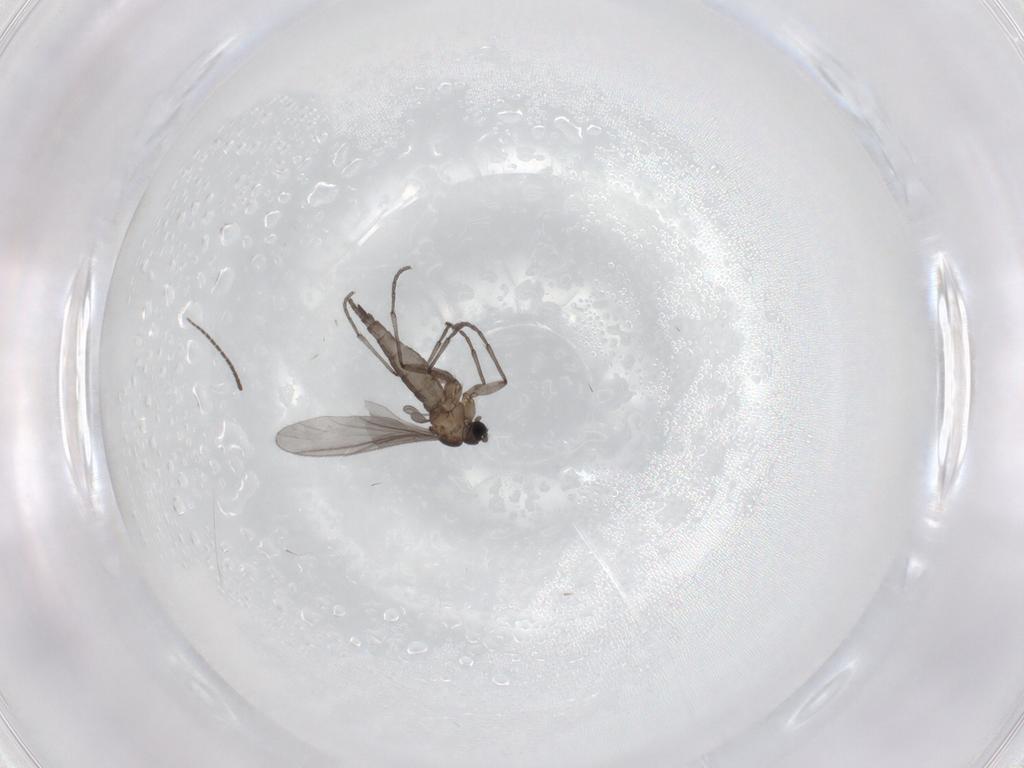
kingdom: Animalia
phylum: Arthropoda
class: Insecta
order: Diptera
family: Sciaridae
